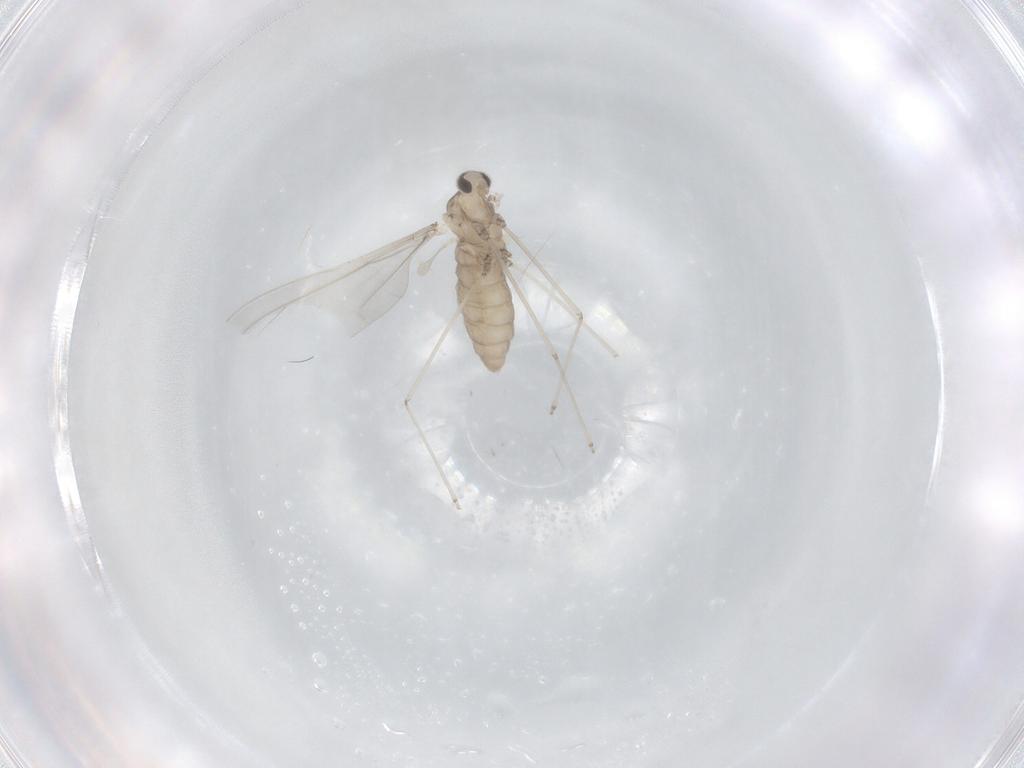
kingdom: Animalia
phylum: Arthropoda
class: Insecta
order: Diptera
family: Cecidomyiidae
